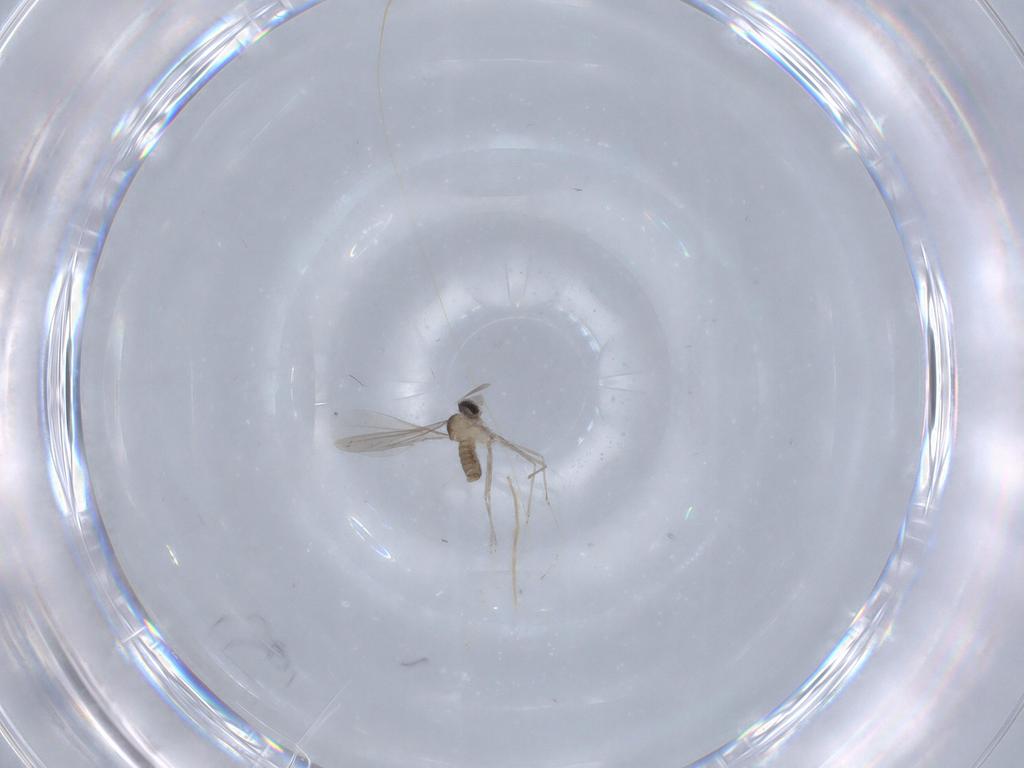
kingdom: Animalia
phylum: Arthropoda
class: Insecta
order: Diptera
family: Cecidomyiidae
